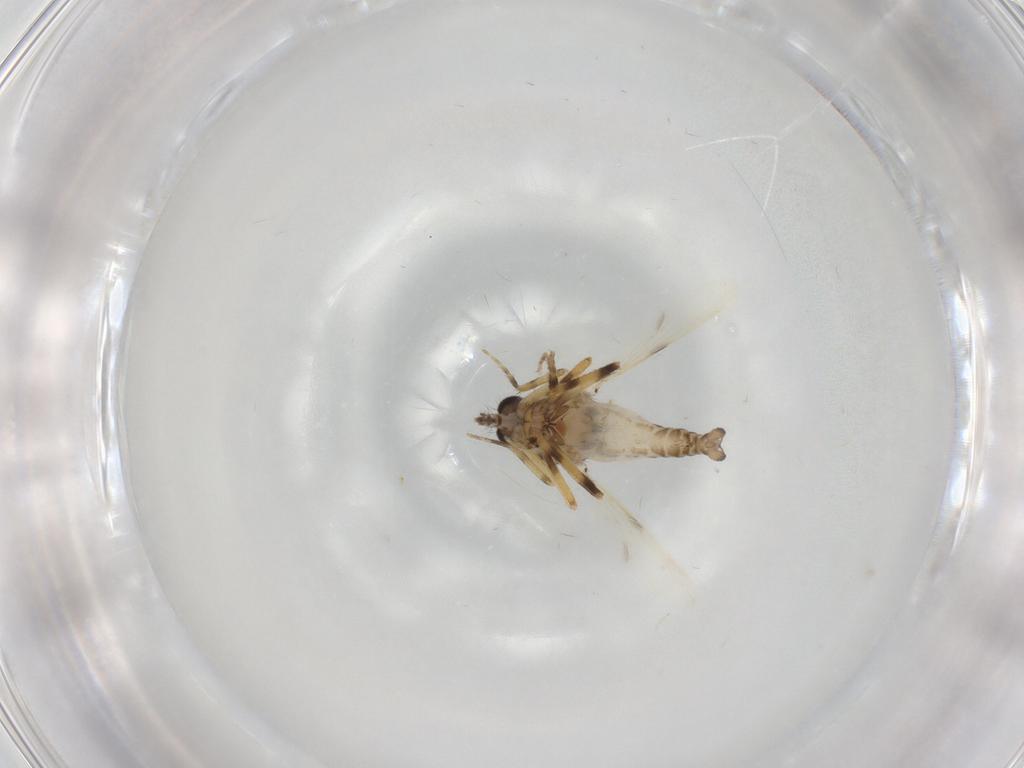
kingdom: Animalia
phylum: Arthropoda
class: Insecta
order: Diptera
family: Ceratopogonidae
